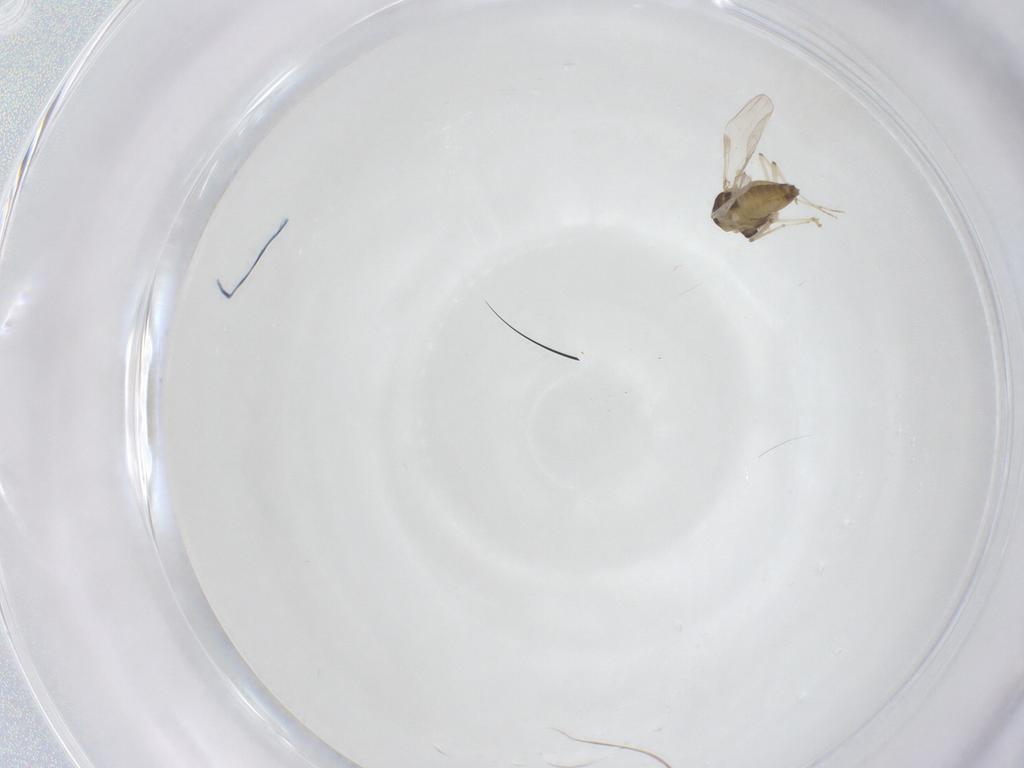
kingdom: Animalia
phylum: Arthropoda
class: Insecta
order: Diptera
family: Chironomidae
